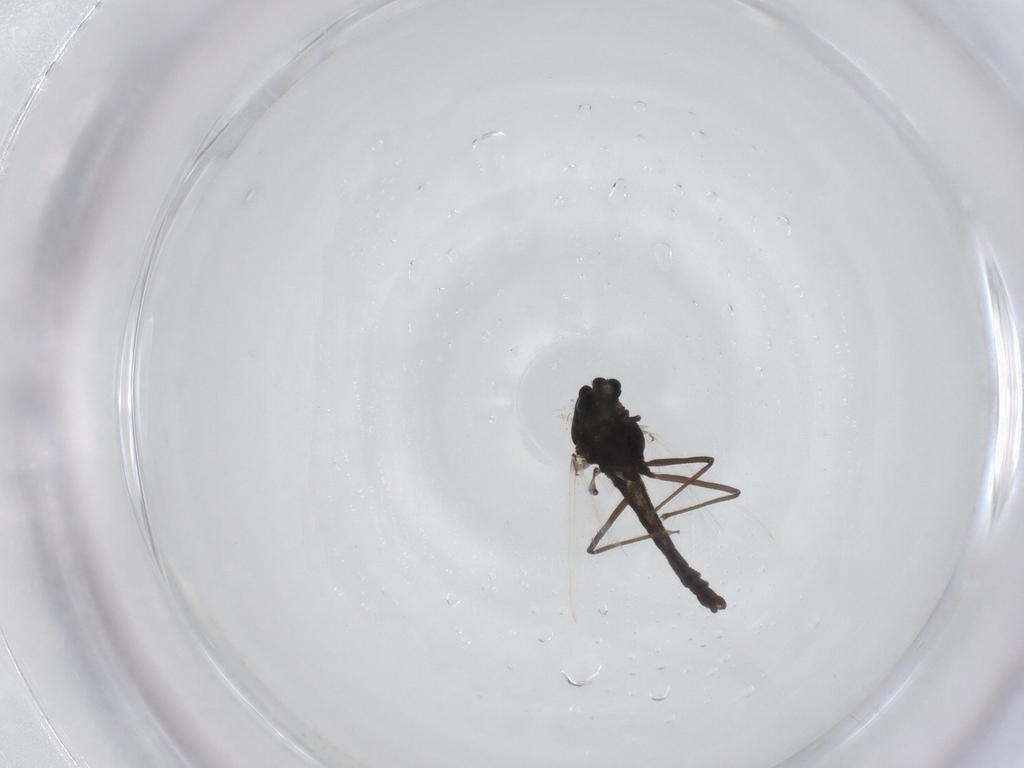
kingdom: Animalia
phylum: Arthropoda
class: Insecta
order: Diptera
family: Chironomidae
